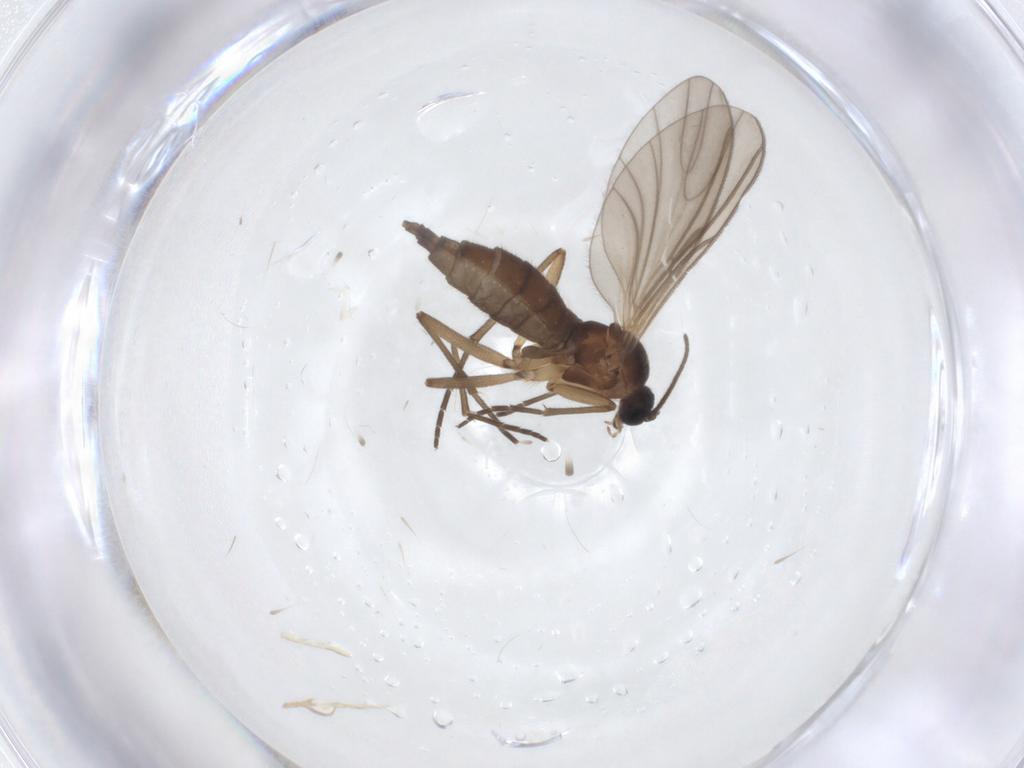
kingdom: Animalia
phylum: Arthropoda
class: Insecta
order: Diptera
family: Sciaridae
